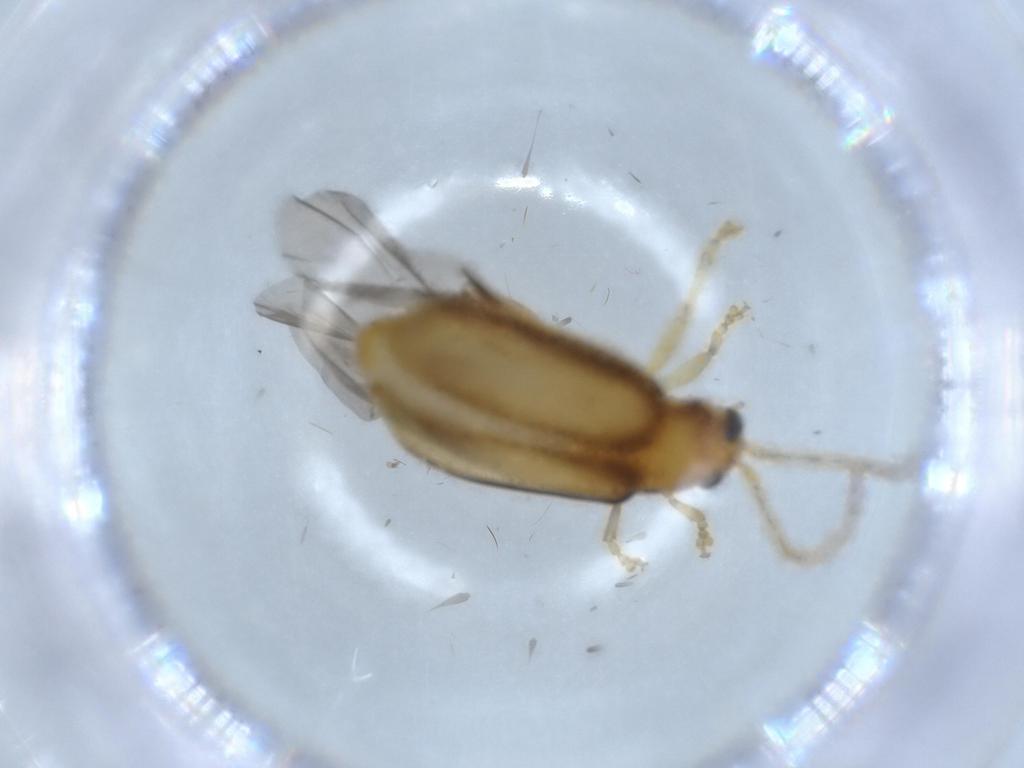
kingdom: Animalia
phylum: Arthropoda
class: Insecta
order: Coleoptera
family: Chrysomelidae
